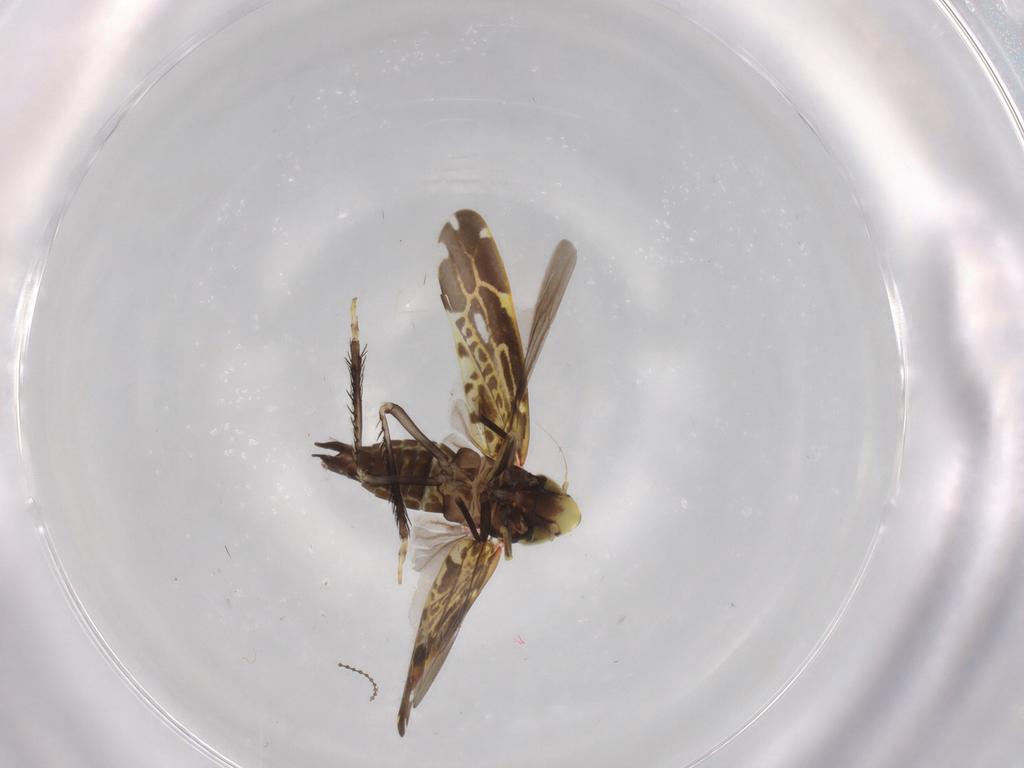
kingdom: Animalia
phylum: Arthropoda
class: Insecta
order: Hemiptera
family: Cicadellidae
